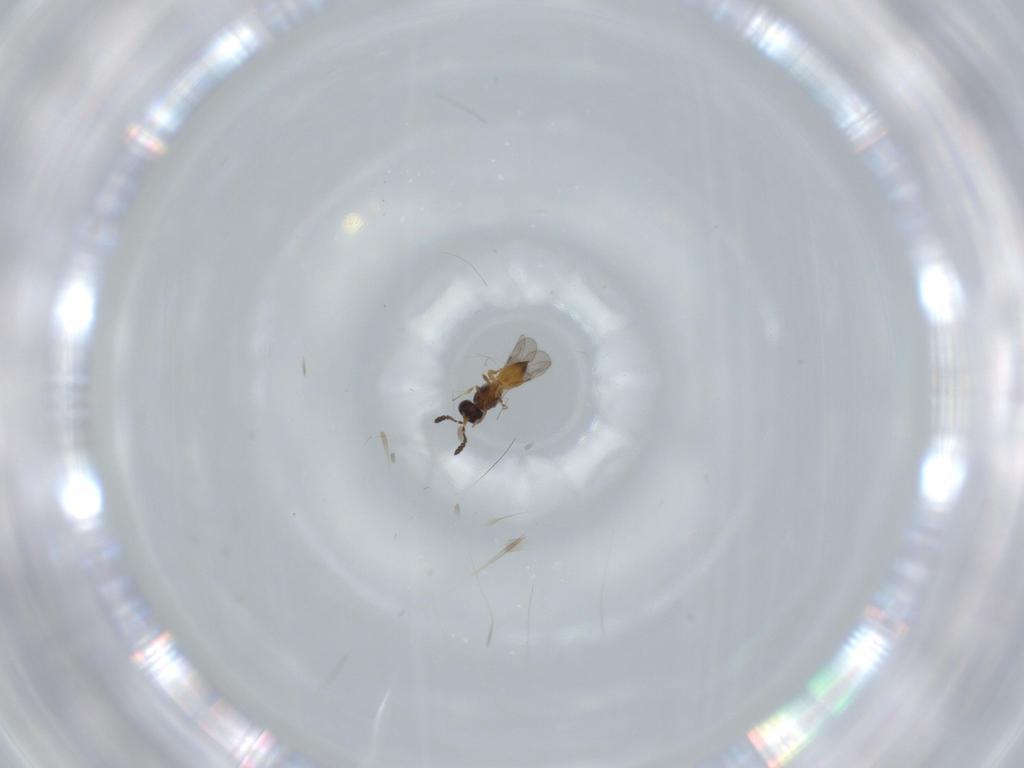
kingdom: Animalia
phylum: Arthropoda
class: Insecta
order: Hymenoptera
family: Ceraphronidae
